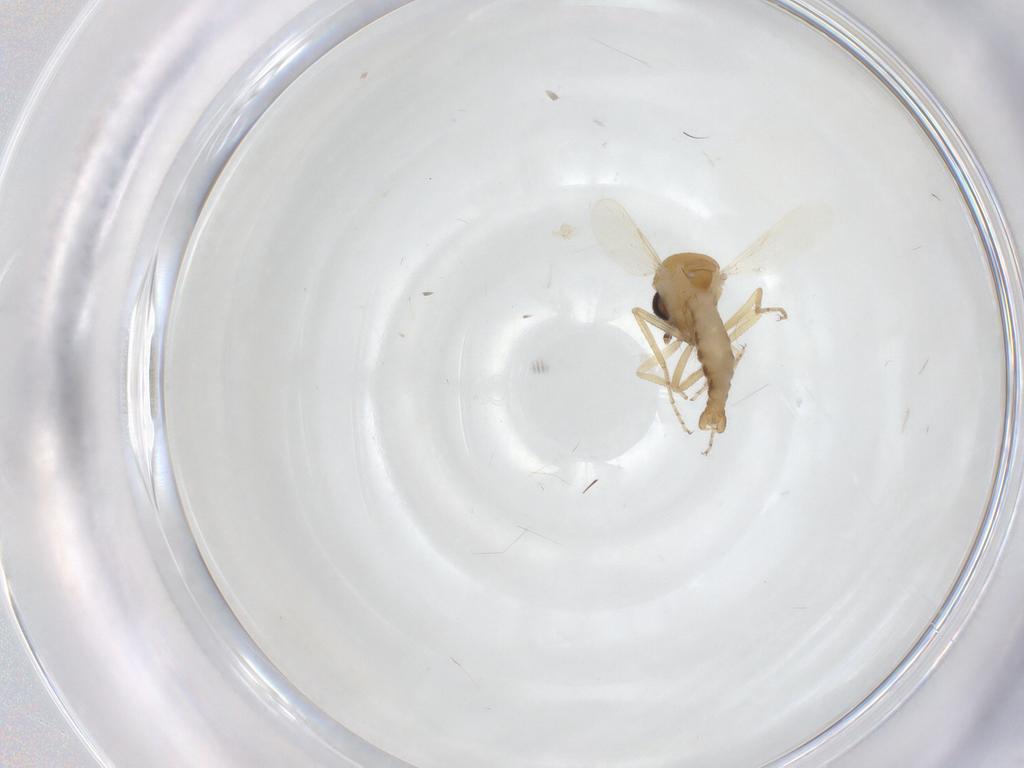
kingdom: Animalia
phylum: Arthropoda
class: Insecta
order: Diptera
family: Ceratopogonidae
